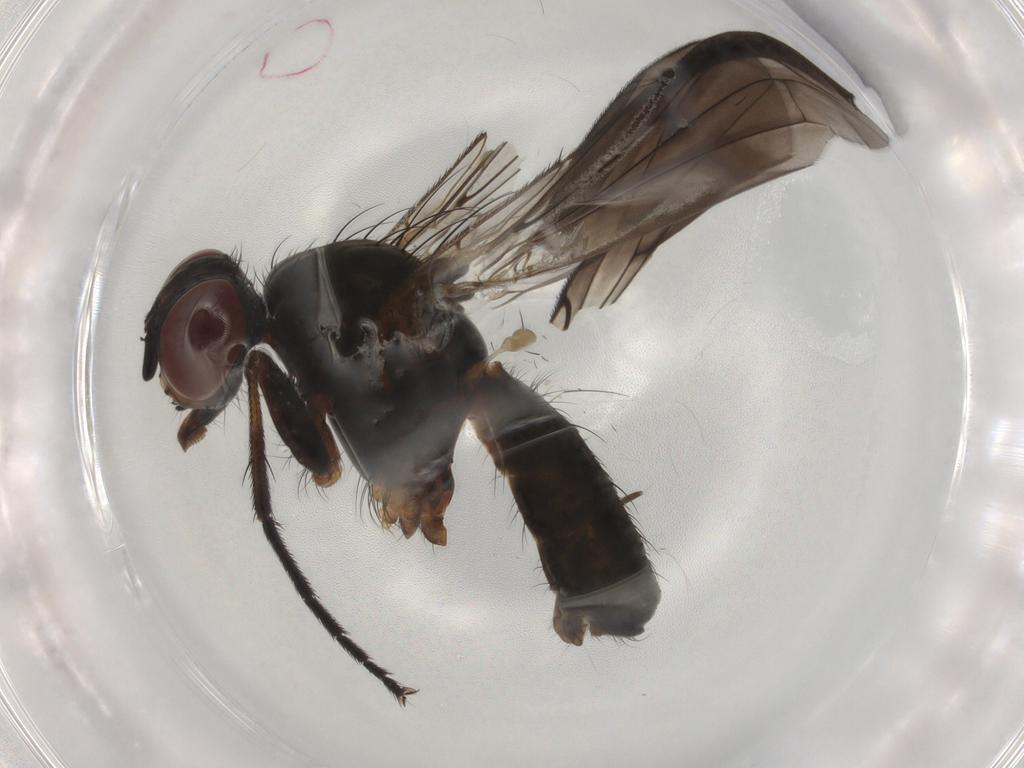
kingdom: Animalia
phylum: Arthropoda
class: Insecta
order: Diptera
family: Anthomyiidae
